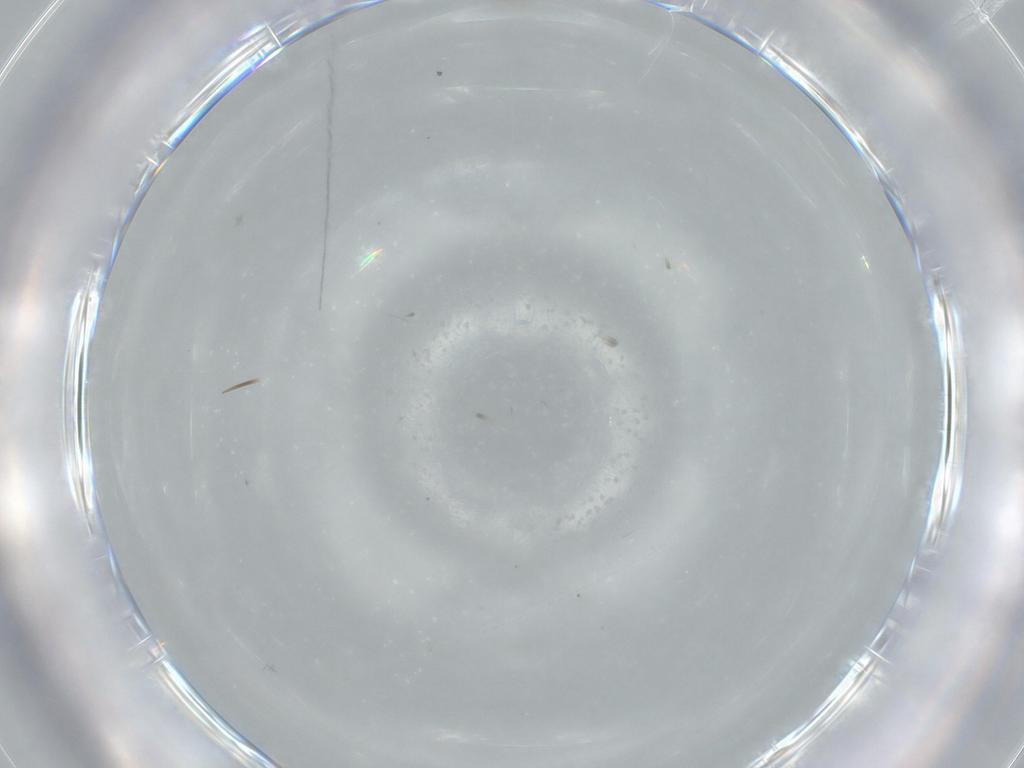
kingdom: Animalia
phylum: Arthropoda
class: Insecta
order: Diptera
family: Phoridae
